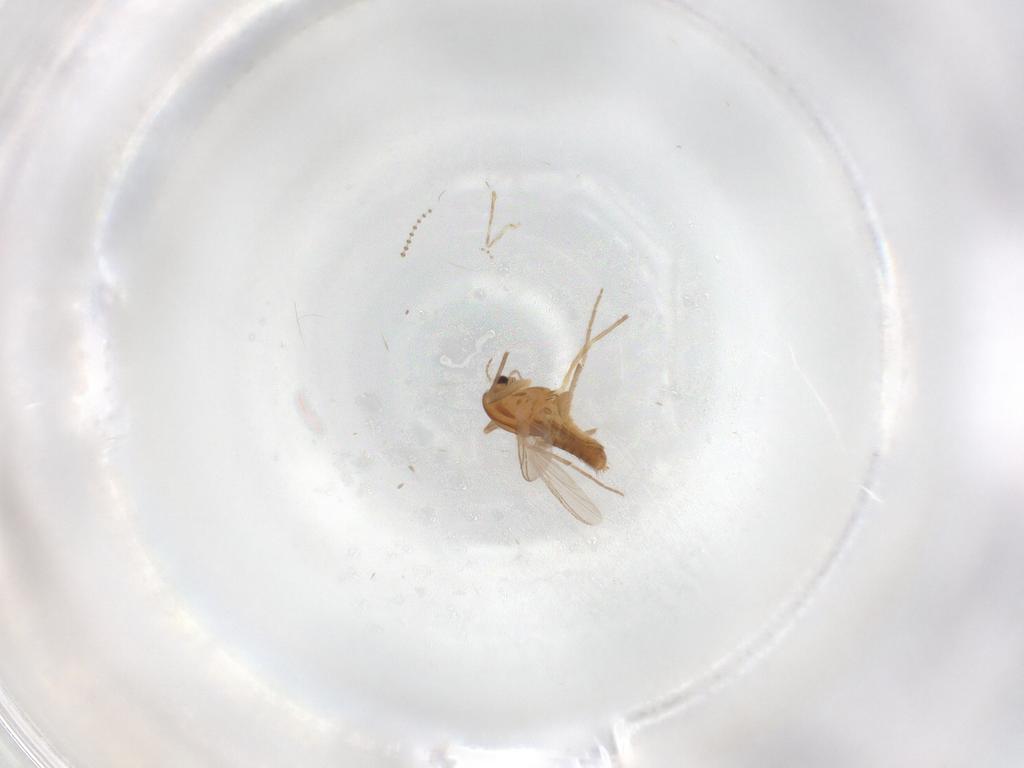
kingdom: Animalia
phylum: Arthropoda
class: Insecta
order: Diptera
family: Chironomidae
